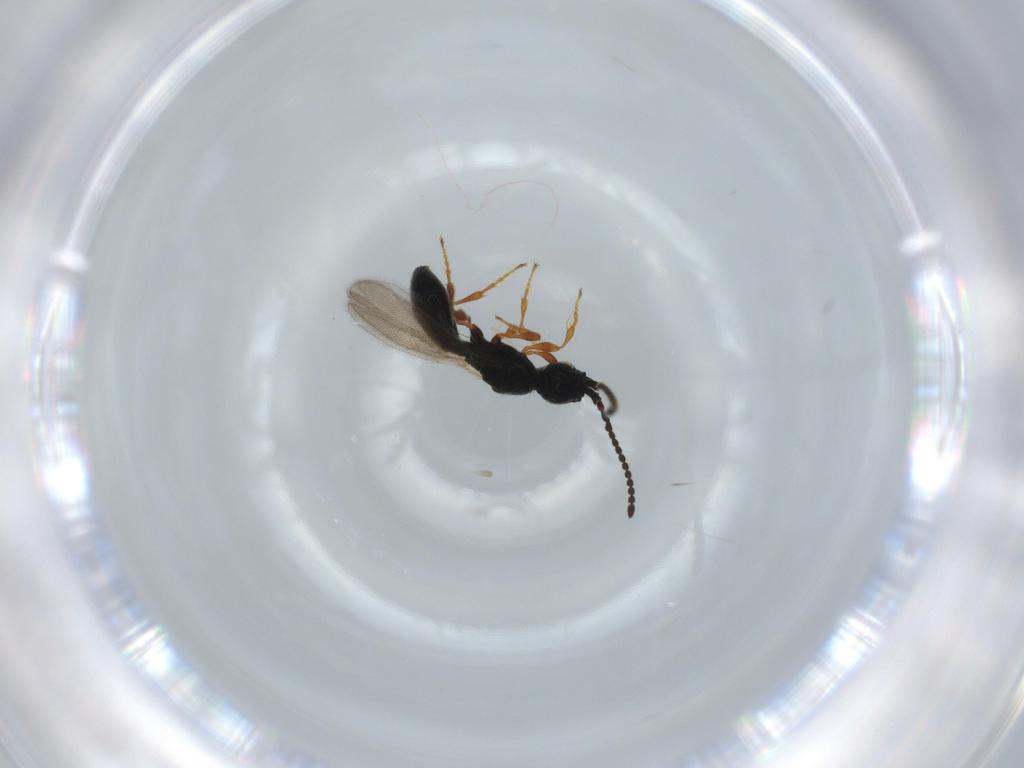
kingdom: Animalia
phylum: Arthropoda
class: Insecta
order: Hymenoptera
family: Diapriidae
